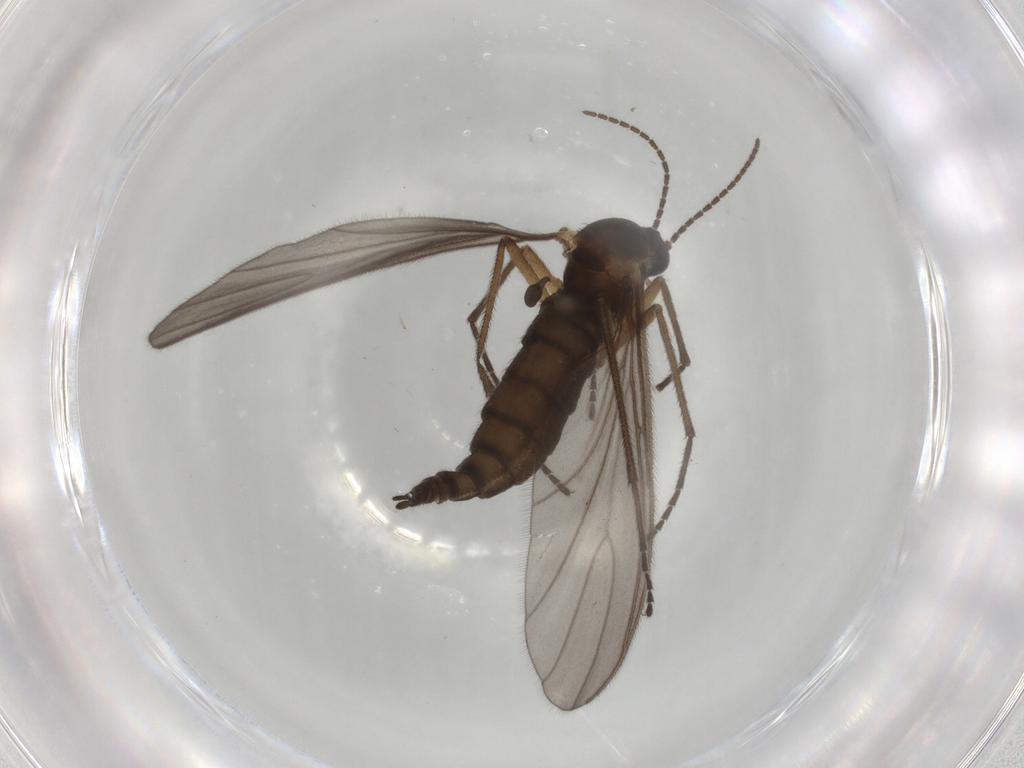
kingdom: Animalia
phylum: Arthropoda
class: Insecta
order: Diptera
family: Sciaridae
